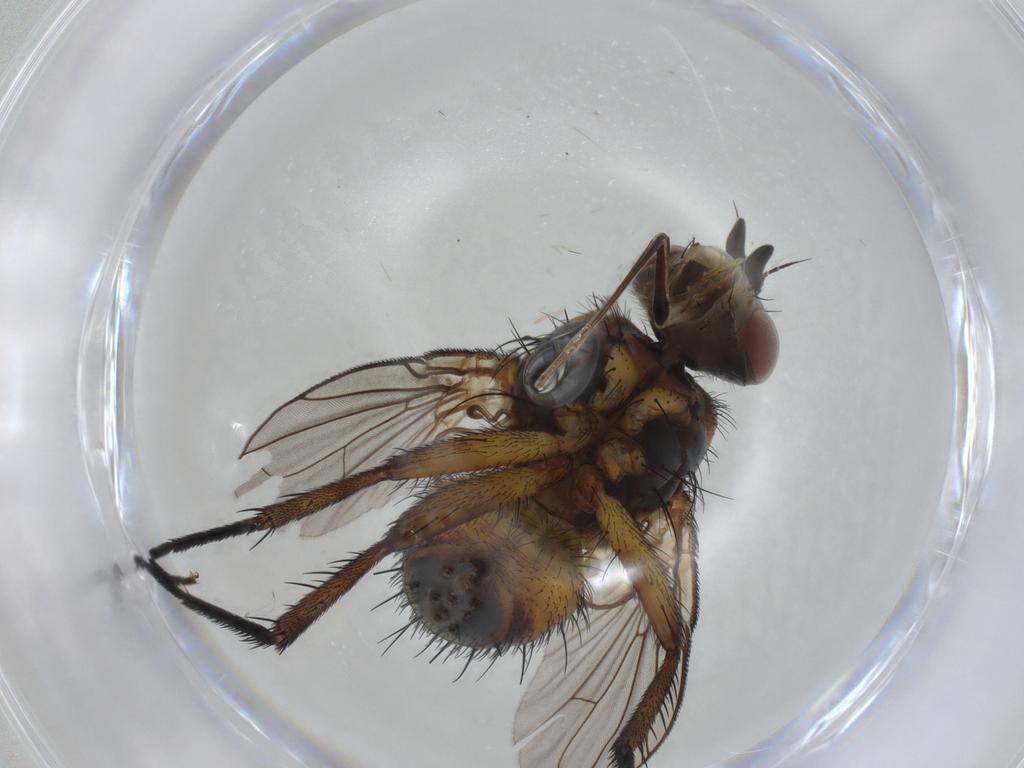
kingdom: Animalia
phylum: Arthropoda
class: Insecta
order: Diptera
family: Tachinidae
